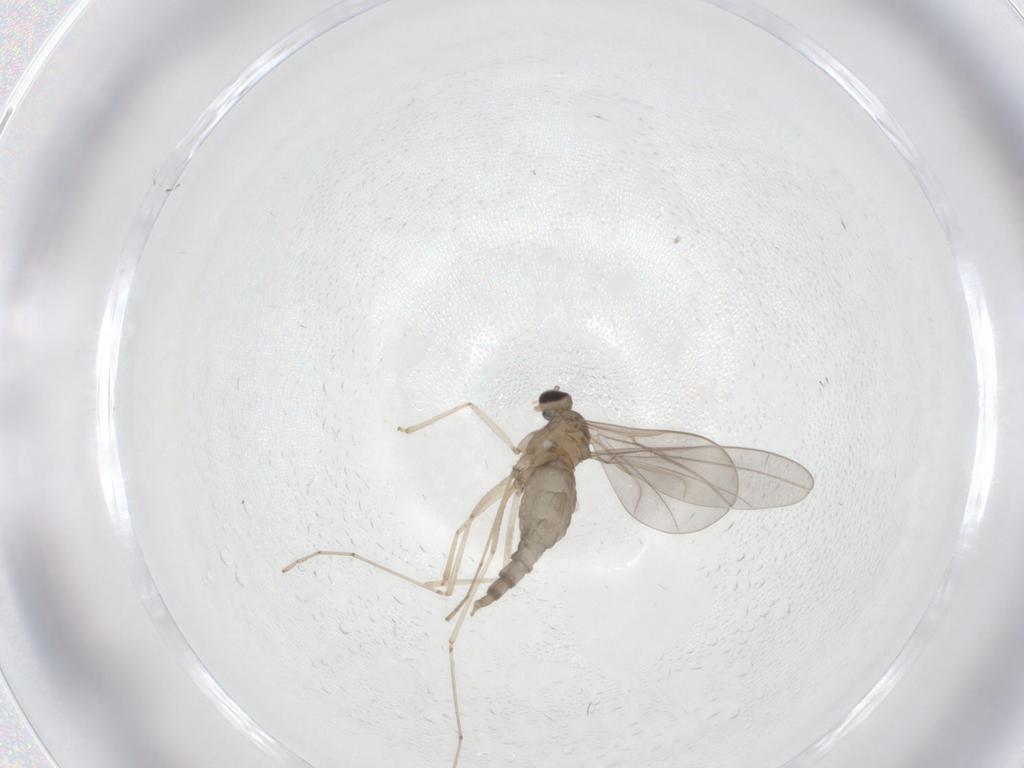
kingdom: Animalia
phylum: Arthropoda
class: Insecta
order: Diptera
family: Cecidomyiidae
